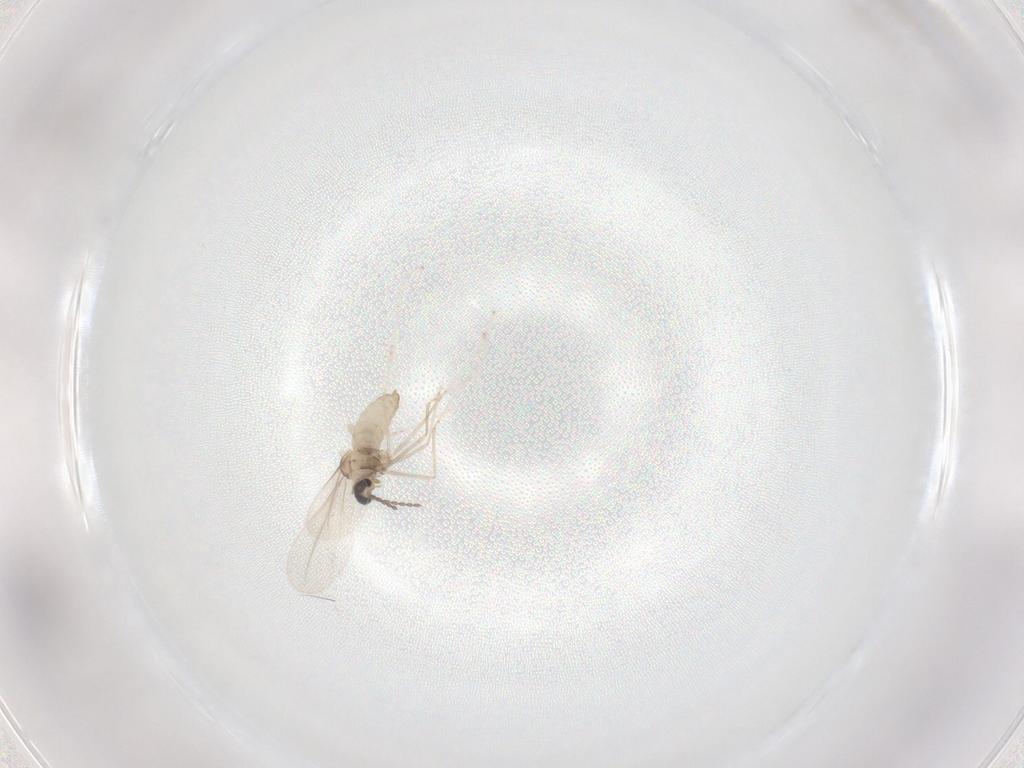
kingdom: Animalia
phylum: Arthropoda
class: Insecta
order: Diptera
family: Cecidomyiidae
